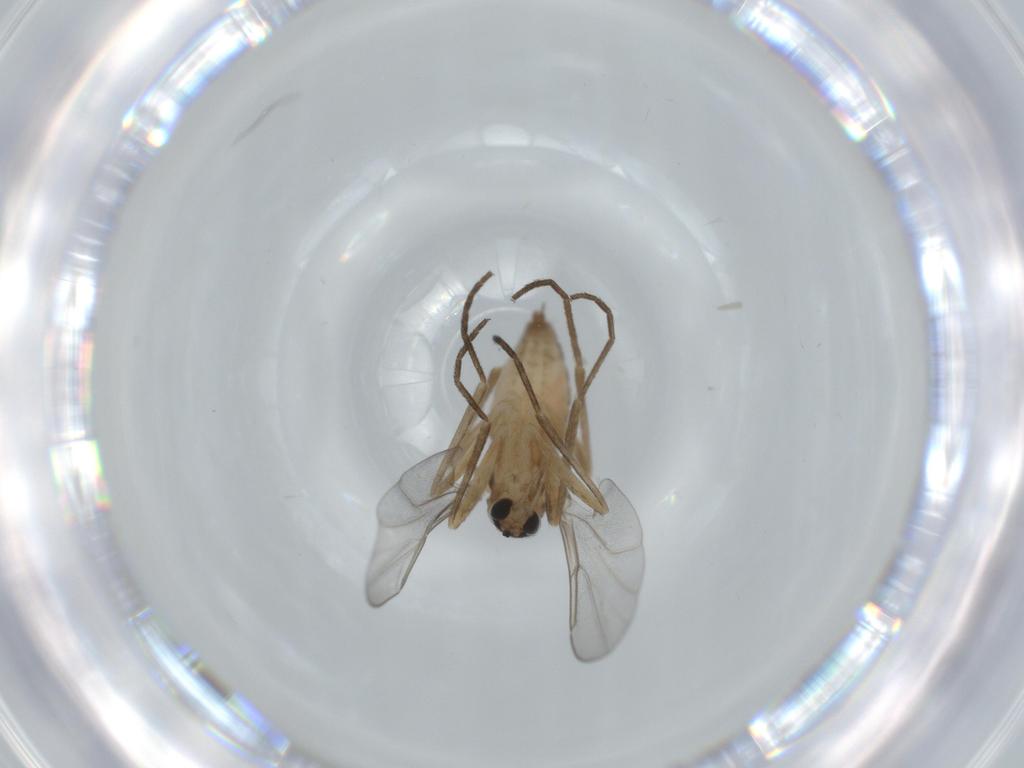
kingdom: Animalia
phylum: Arthropoda
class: Insecta
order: Diptera
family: Cecidomyiidae
